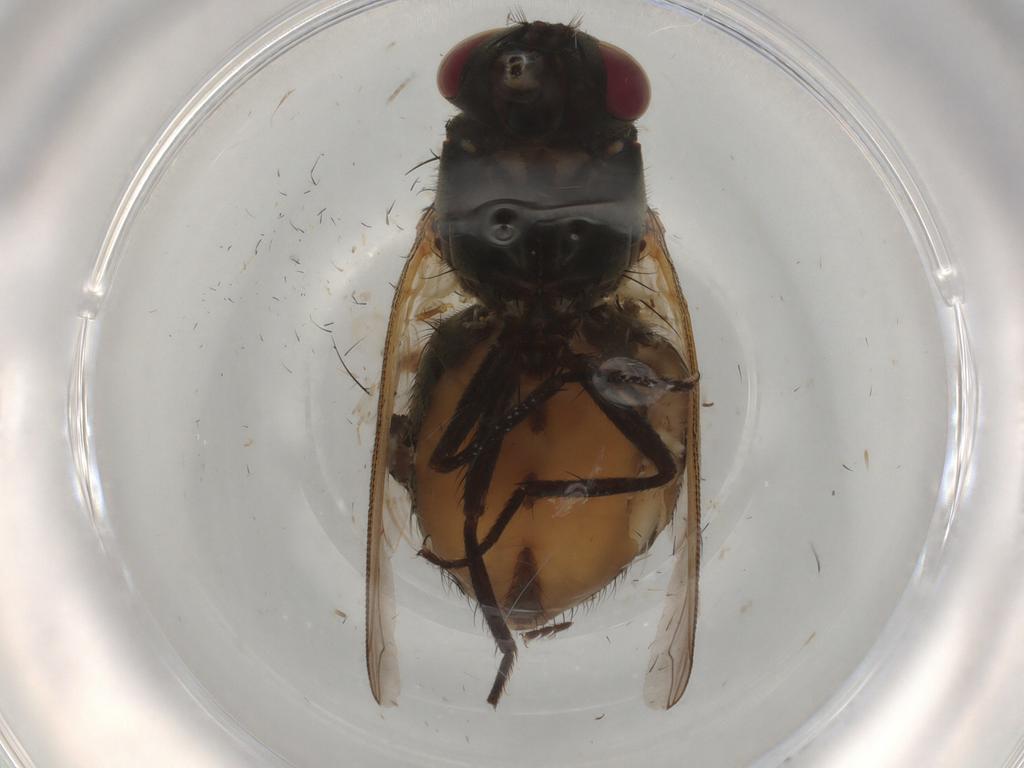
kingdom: Animalia
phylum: Arthropoda
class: Insecta
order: Diptera
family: Muscidae
